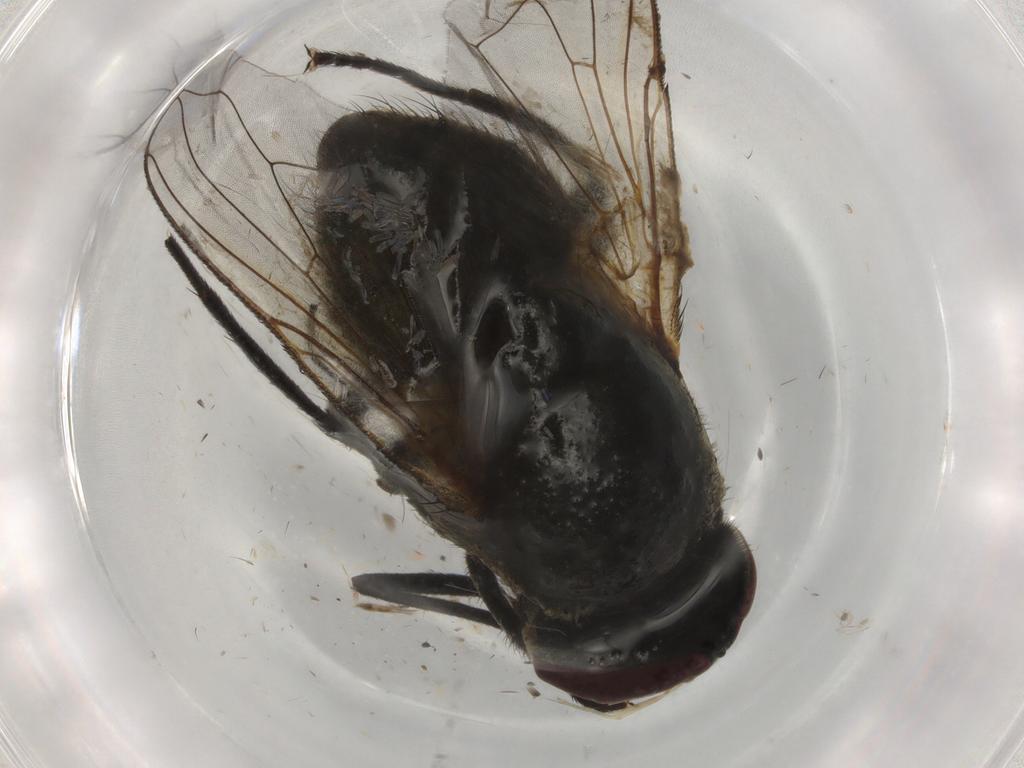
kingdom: Animalia
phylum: Arthropoda
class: Insecta
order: Diptera
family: Muscidae
